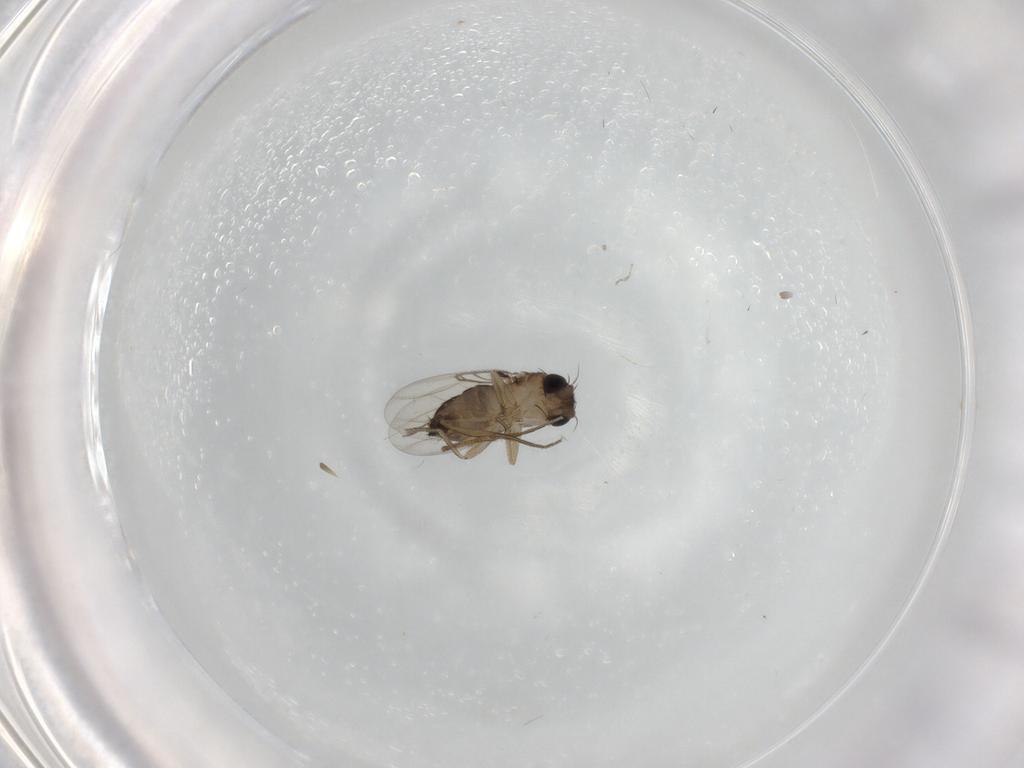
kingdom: Animalia
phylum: Arthropoda
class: Insecta
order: Diptera
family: Phoridae
